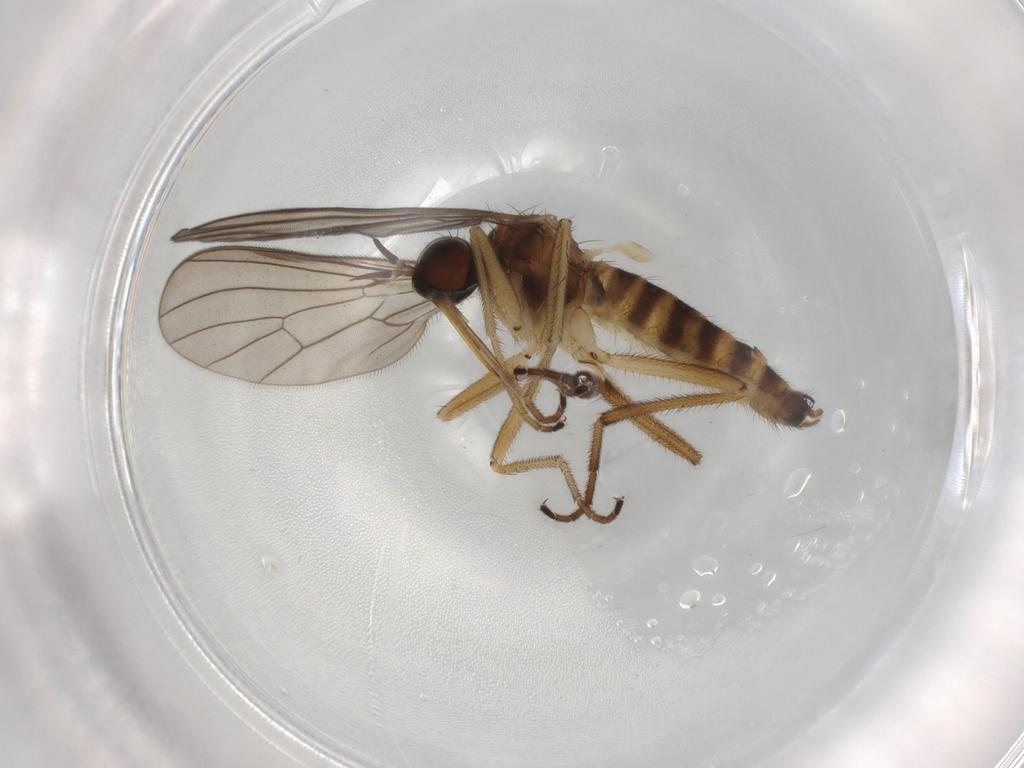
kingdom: Animalia
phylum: Arthropoda
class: Insecta
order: Diptera
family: Empididae
